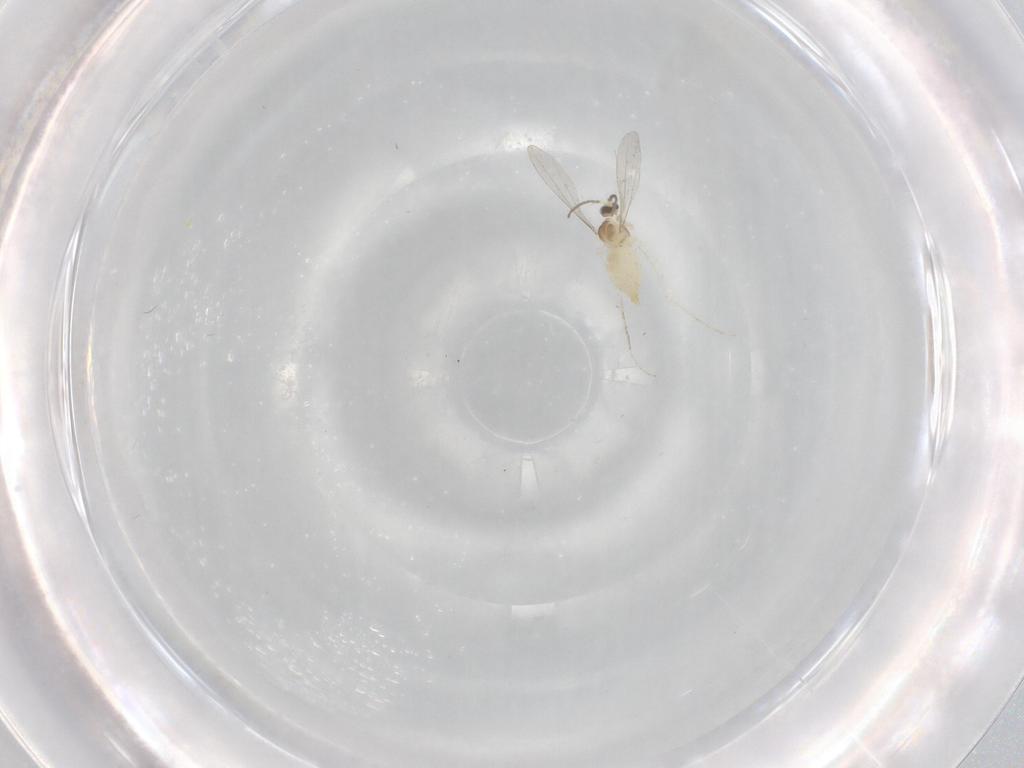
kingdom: Animalia
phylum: Arthropoda
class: Insecta
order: Diptera
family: Cecidomyiidae
